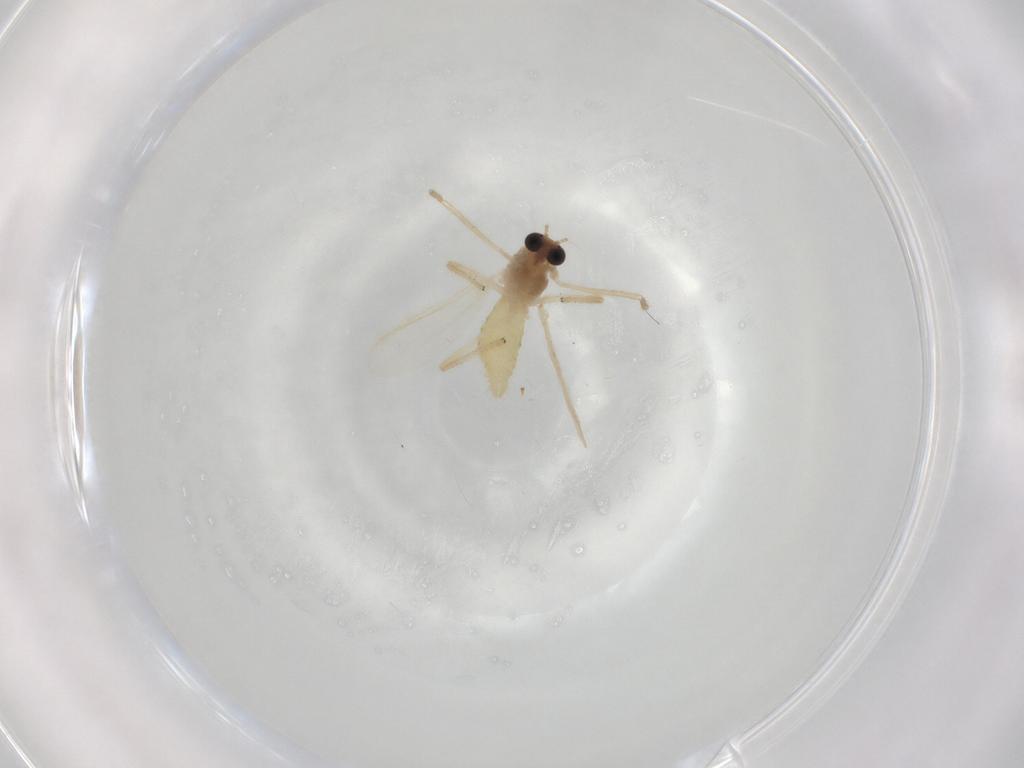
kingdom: Animalia
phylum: Arthropoda
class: Insecta
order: Diptera
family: Chironomidae
